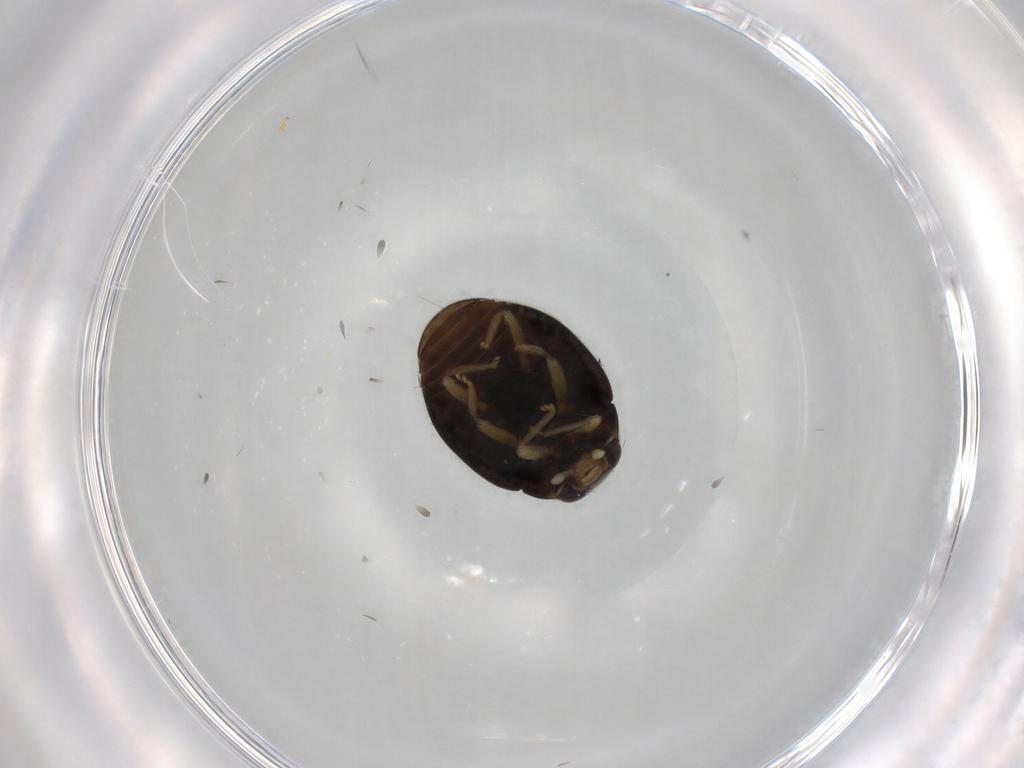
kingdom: Animalia
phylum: Arthropoda
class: Insecta
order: Coleoptera
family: Coccinellidae
